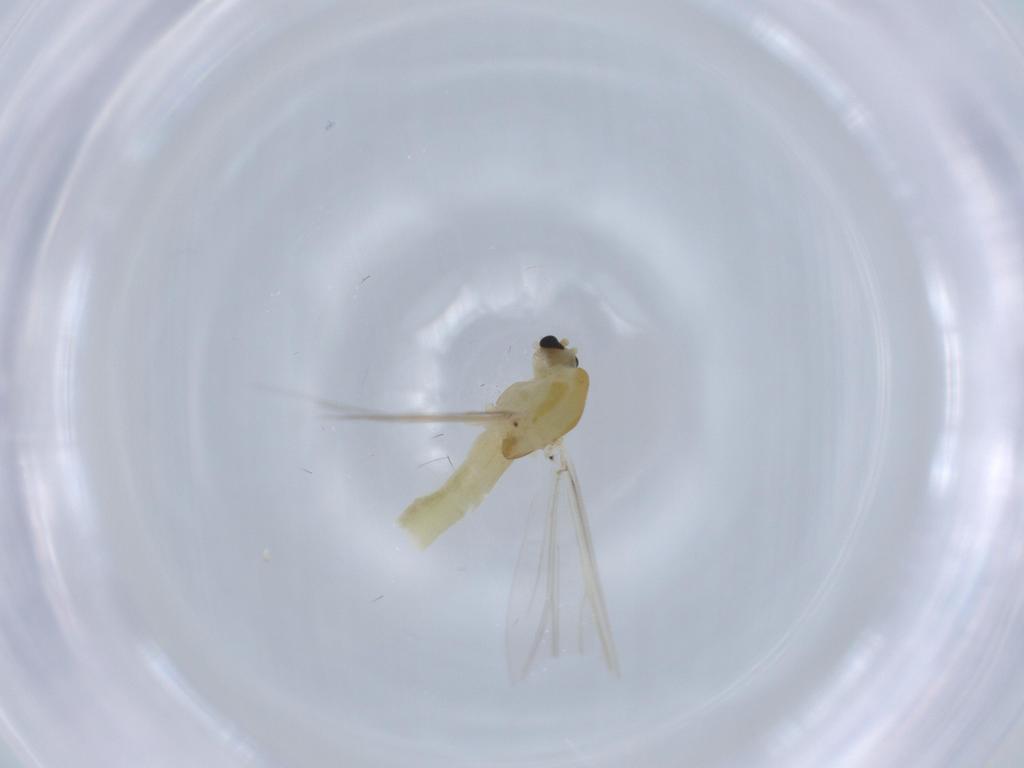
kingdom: Animalia
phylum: Arthropoda
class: Insecta
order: Diptera
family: Chironomidae
